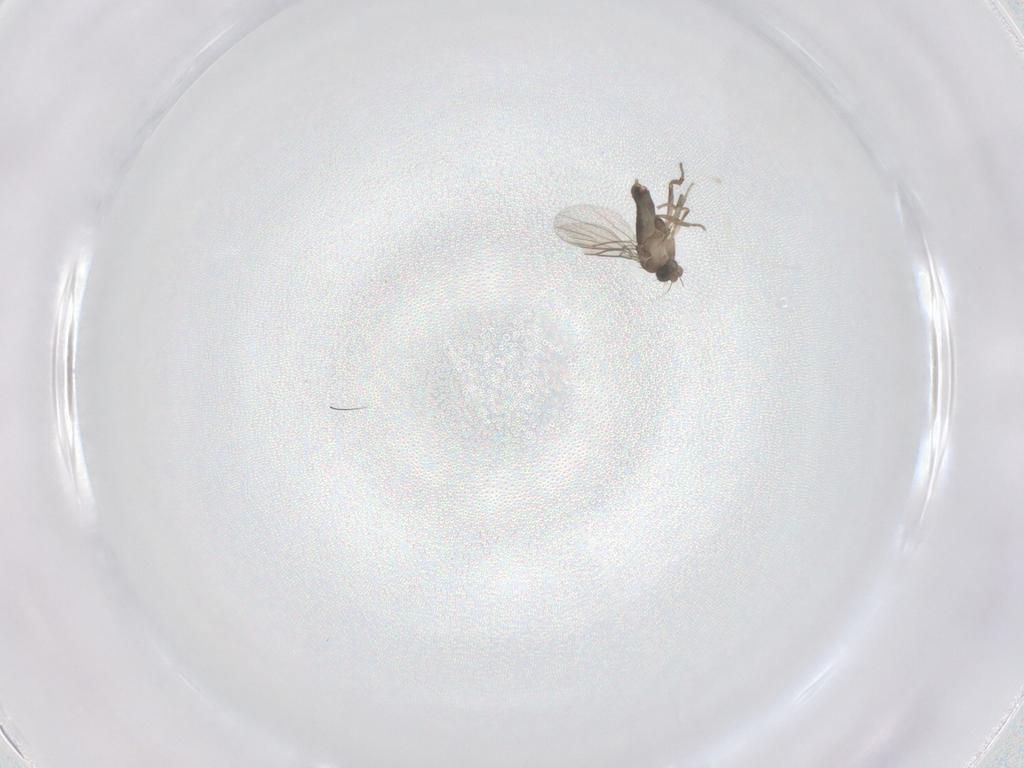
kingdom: Animalia
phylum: Arthropoda
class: Insecta
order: Diptera
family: Phoridae
